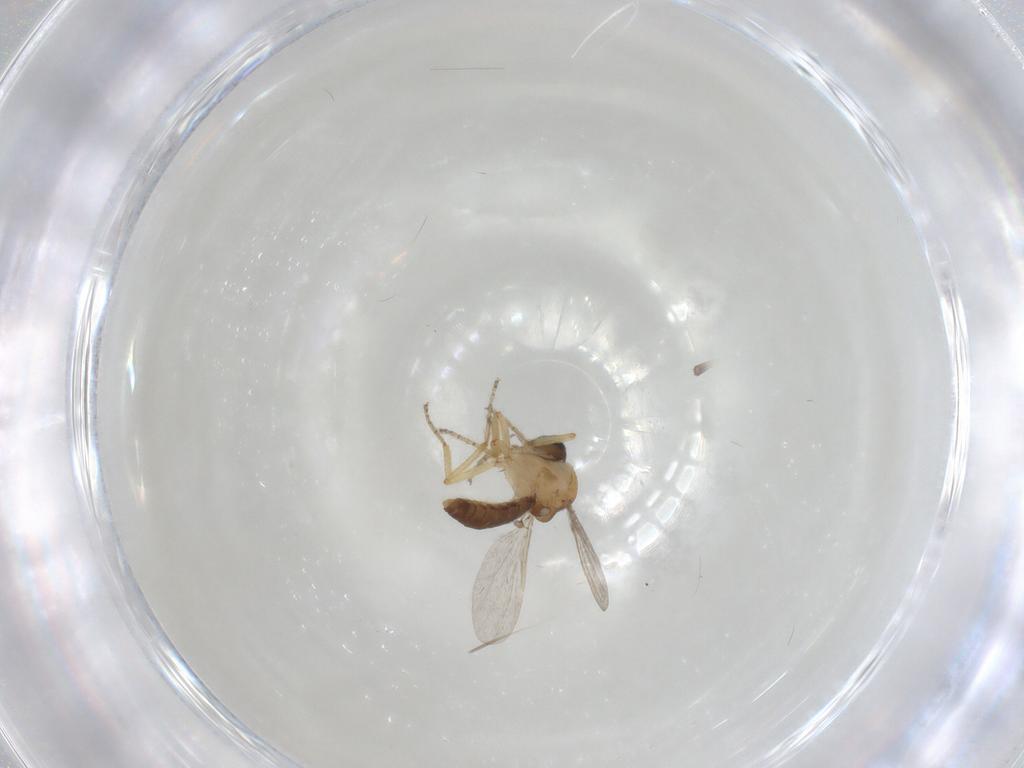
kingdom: Animalia
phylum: Arthropoda
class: Insecta
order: Diptera
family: Ceratopogonidae
